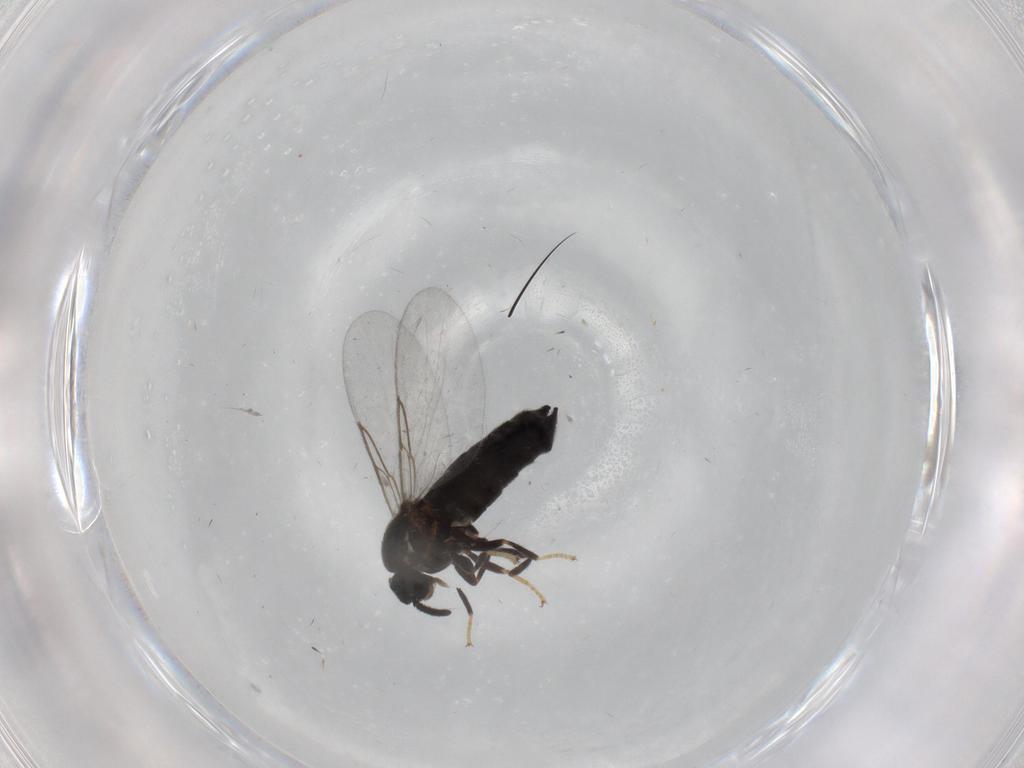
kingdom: Animalia
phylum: Arthropoda
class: Insecta
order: Diptera
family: Scatopsidae
